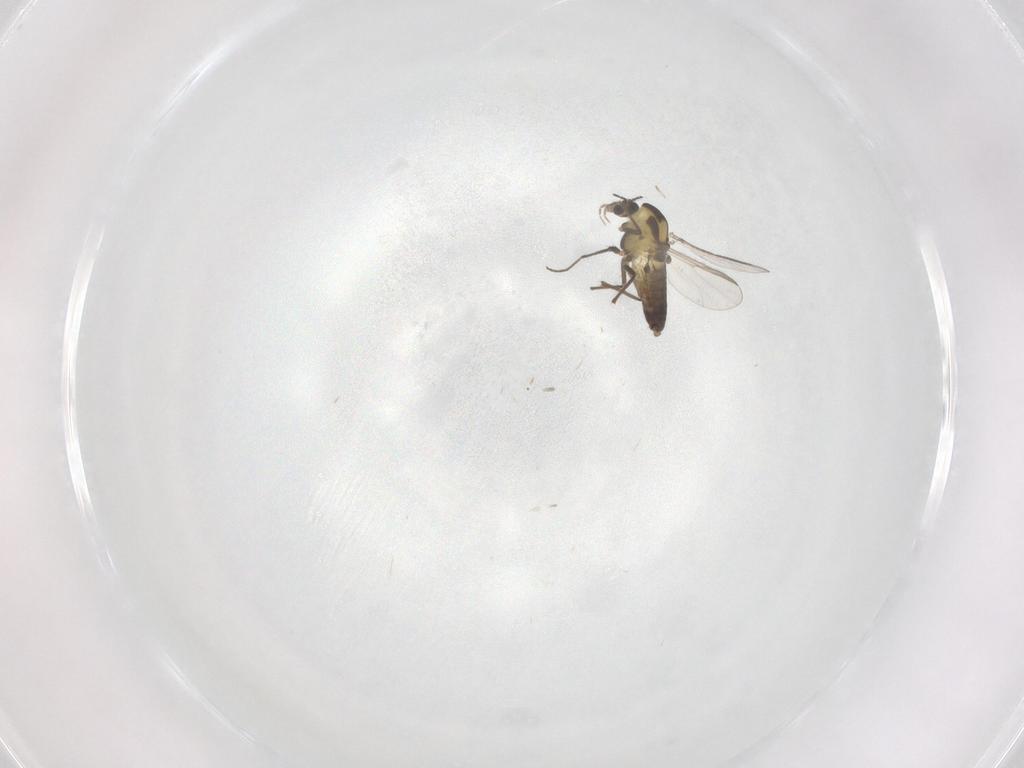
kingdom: Animalia
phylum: Arthropoda
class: Insecta
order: Diptera
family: Chironomidae
